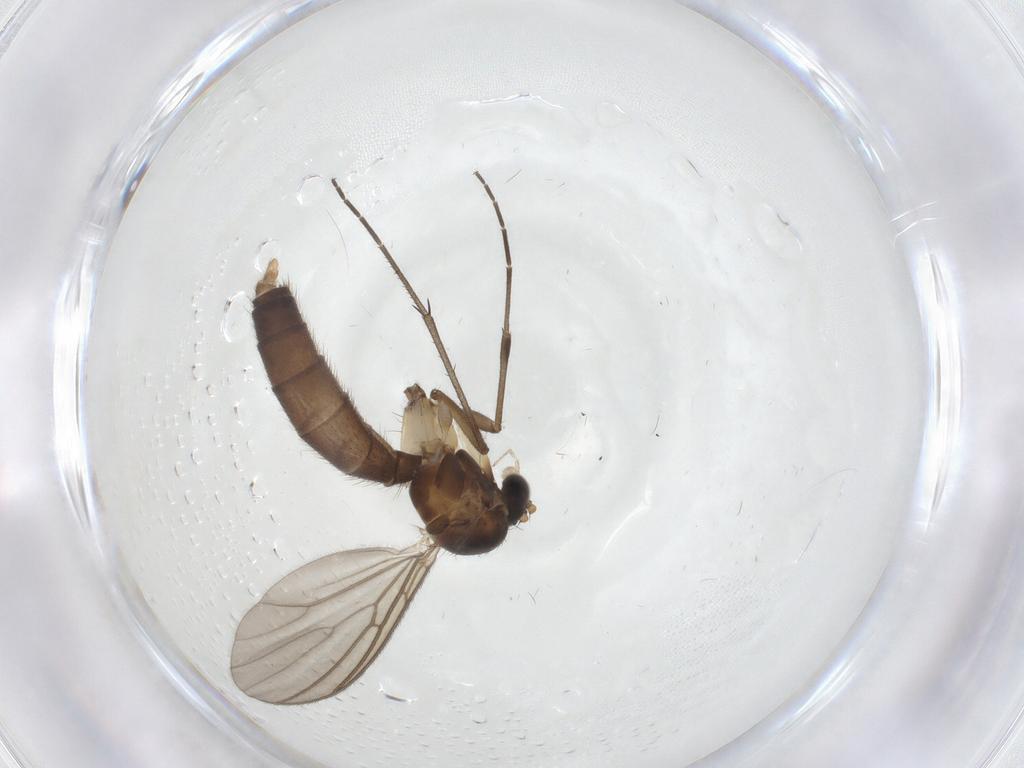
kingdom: Animalia
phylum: Arthropoda
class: Insecta
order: Diptera
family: Mycetophilidae
